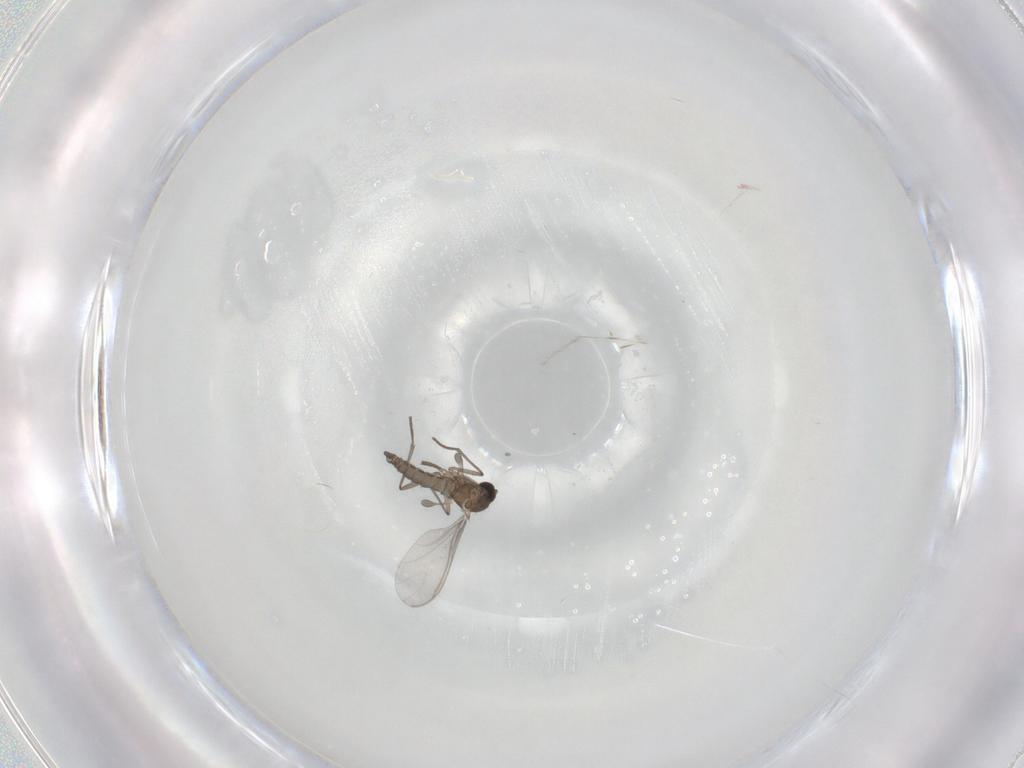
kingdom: Animalia
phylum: Arthropoda
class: Insecta
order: Diptera
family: Sciaridae
